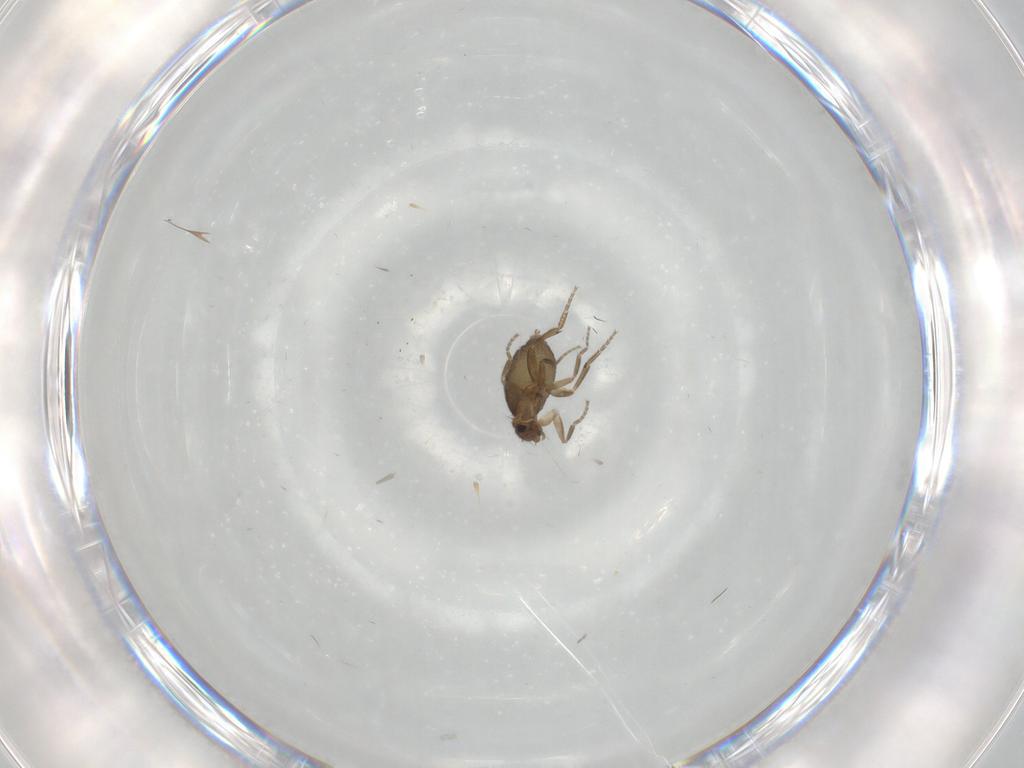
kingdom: Animalia
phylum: Arthropoda
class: Insecta
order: Diptera
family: Phoridae
